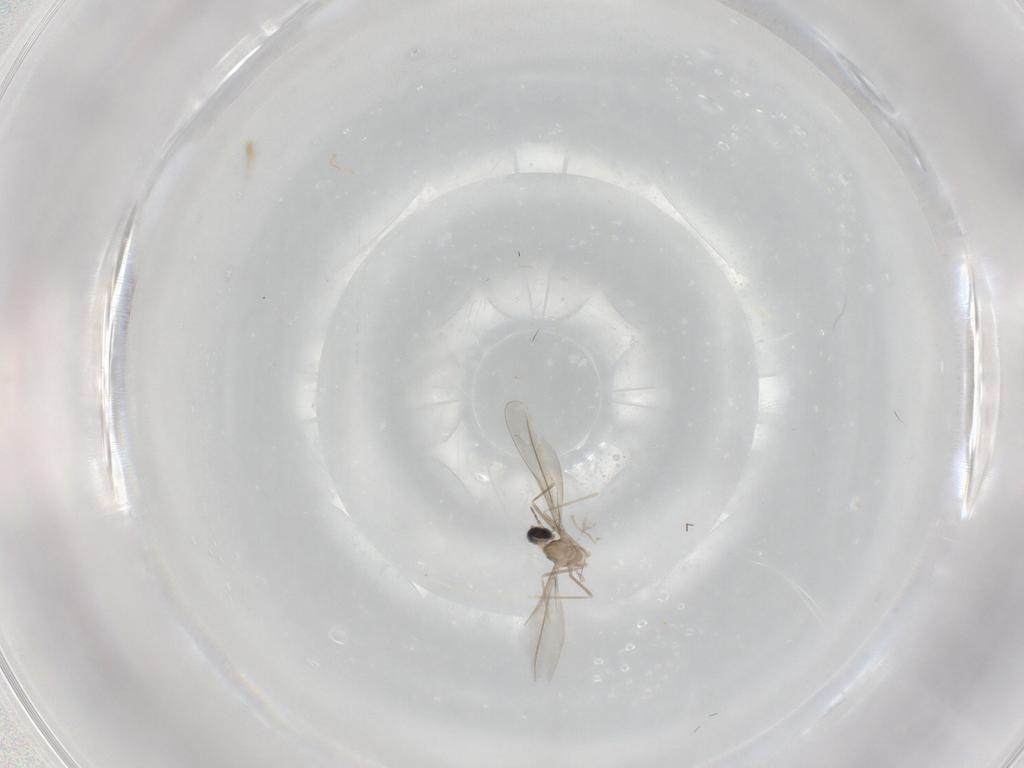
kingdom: Animalia
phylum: Arthropoda
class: Insecta
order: Diptera
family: Cecidomyiidae
